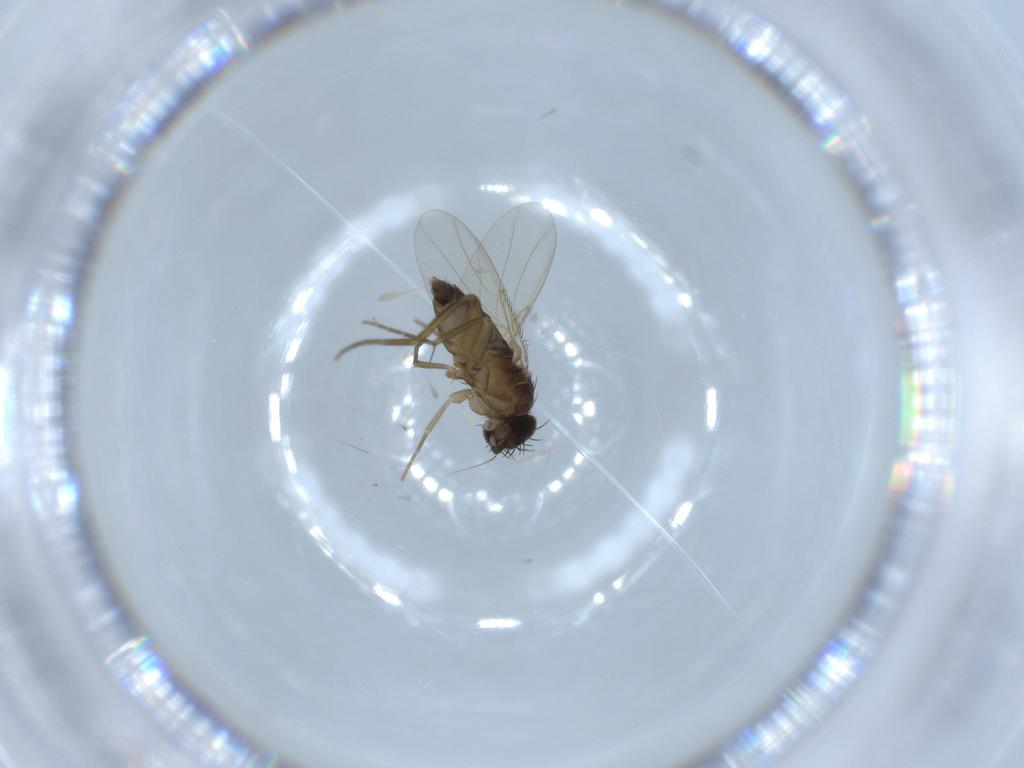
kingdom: Animalia
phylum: Arthropoda
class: Insecta
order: Diptera
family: Phoridae
